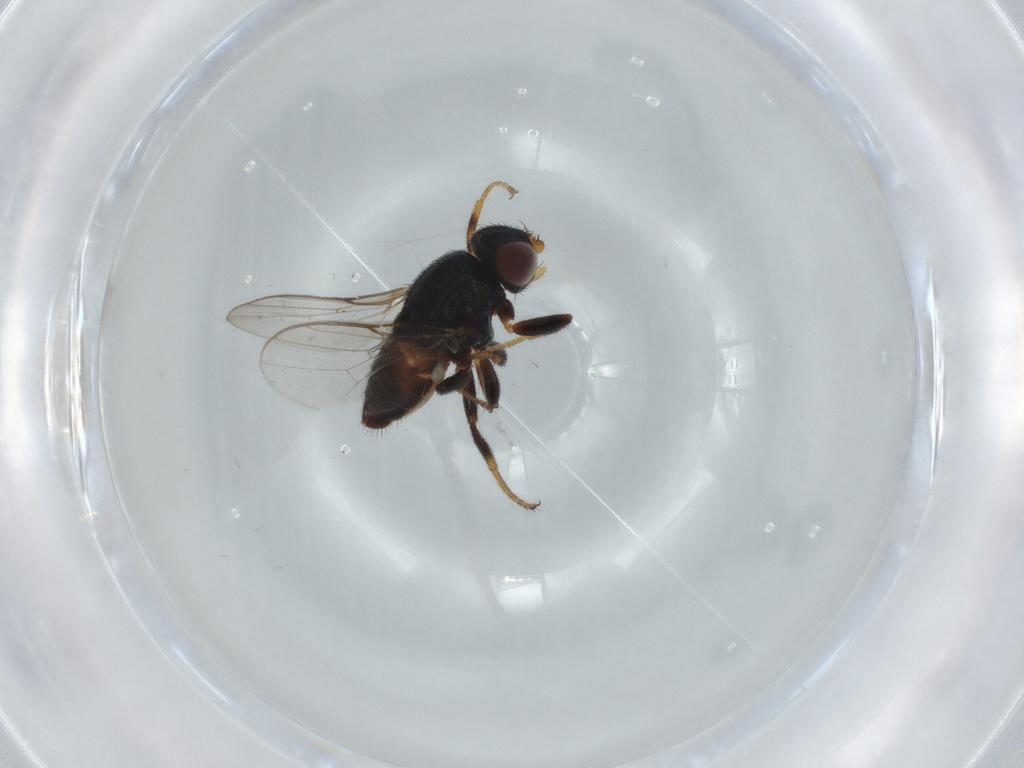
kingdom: Animalia
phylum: Arthropoda
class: Insecta
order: Diptera
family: Chloropidae
